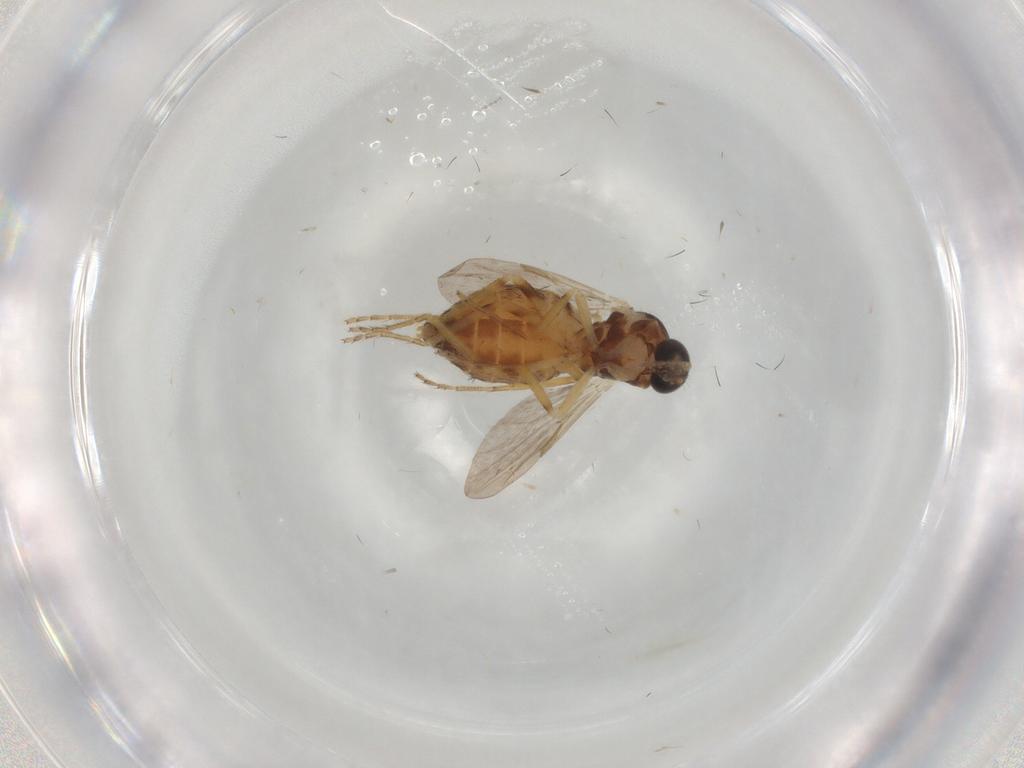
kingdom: Animalia
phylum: Arthropoda
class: Insecta
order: Diptera
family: Ceratopogonidae
